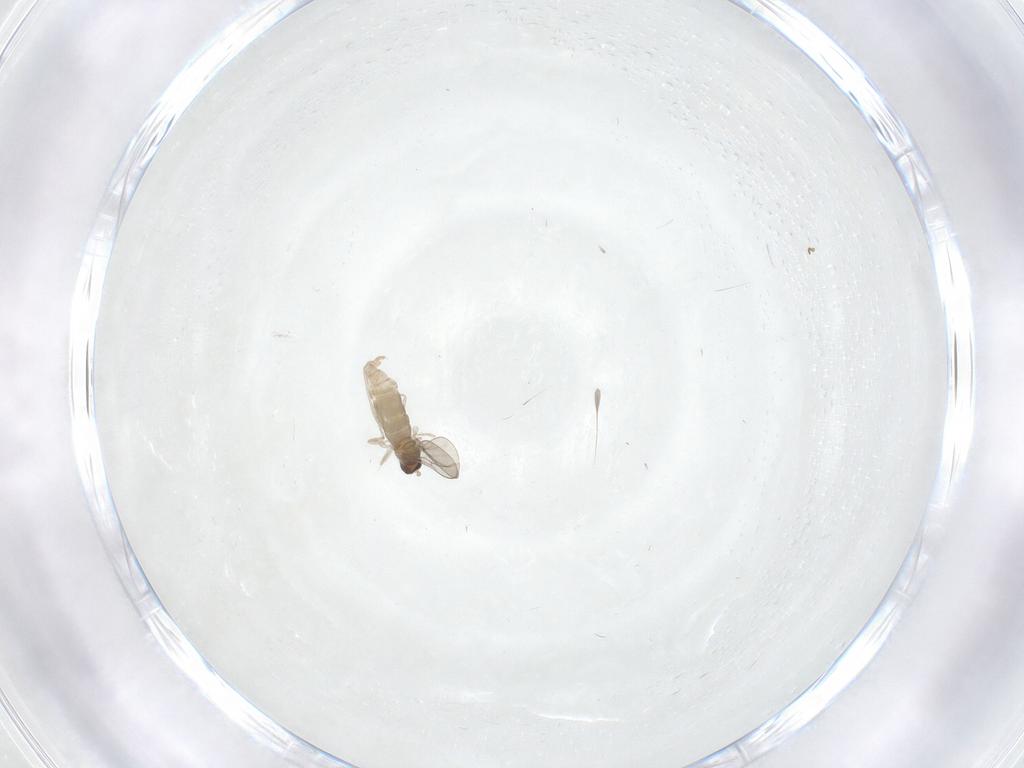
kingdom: Animalia
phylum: Arthropoda
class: Insecta
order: Diptera
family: Cecidomyiidae
